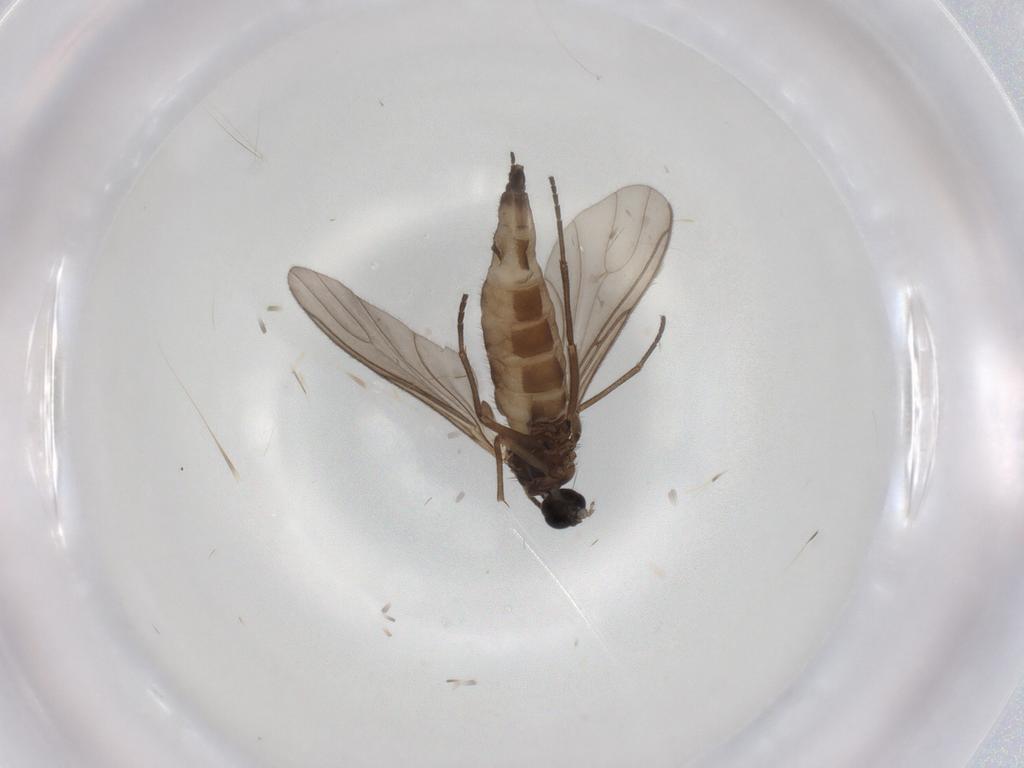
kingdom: Animalia
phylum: Arthropoda
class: Insecta
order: Diptera
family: Sciaridae
